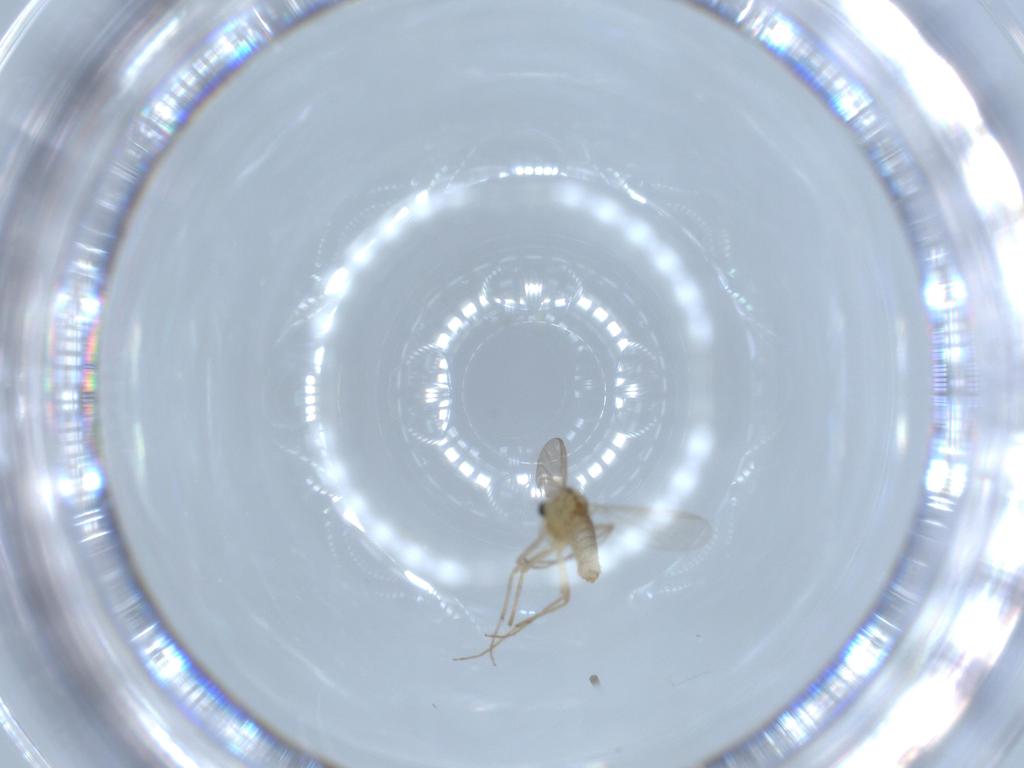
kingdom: Animalia
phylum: Arthropoda
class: Insecta
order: Diptera
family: Chironomidae
